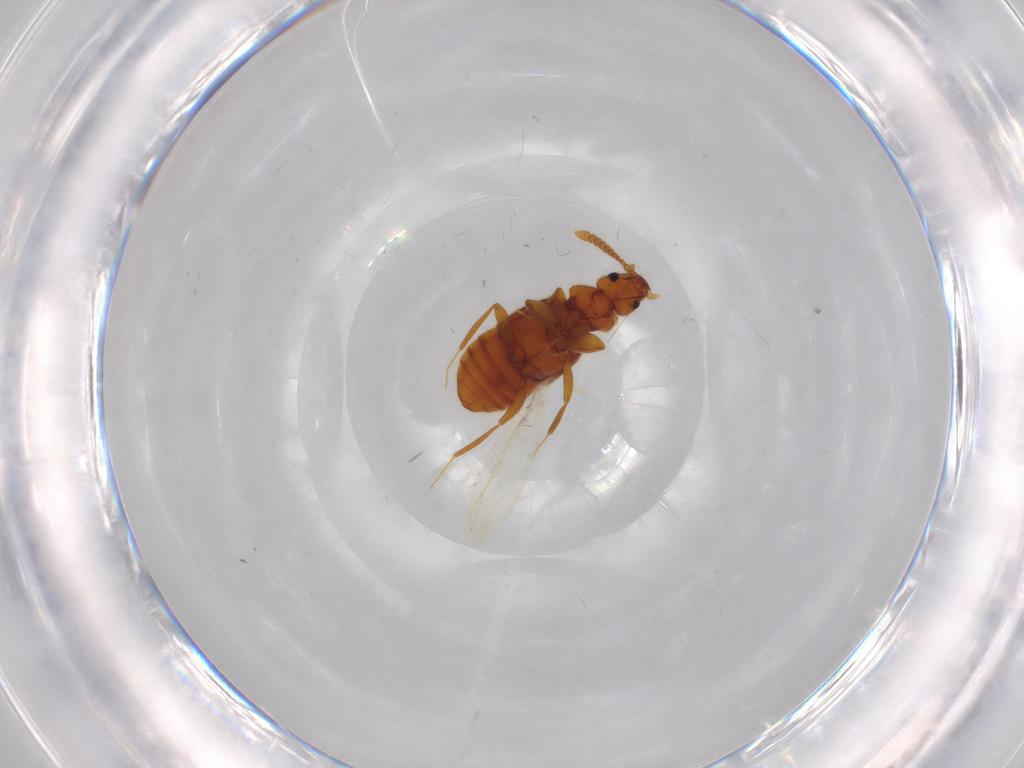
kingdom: Animalia
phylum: Arthropoda
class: Insecta
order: Coleoptera
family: Staphylinidae
